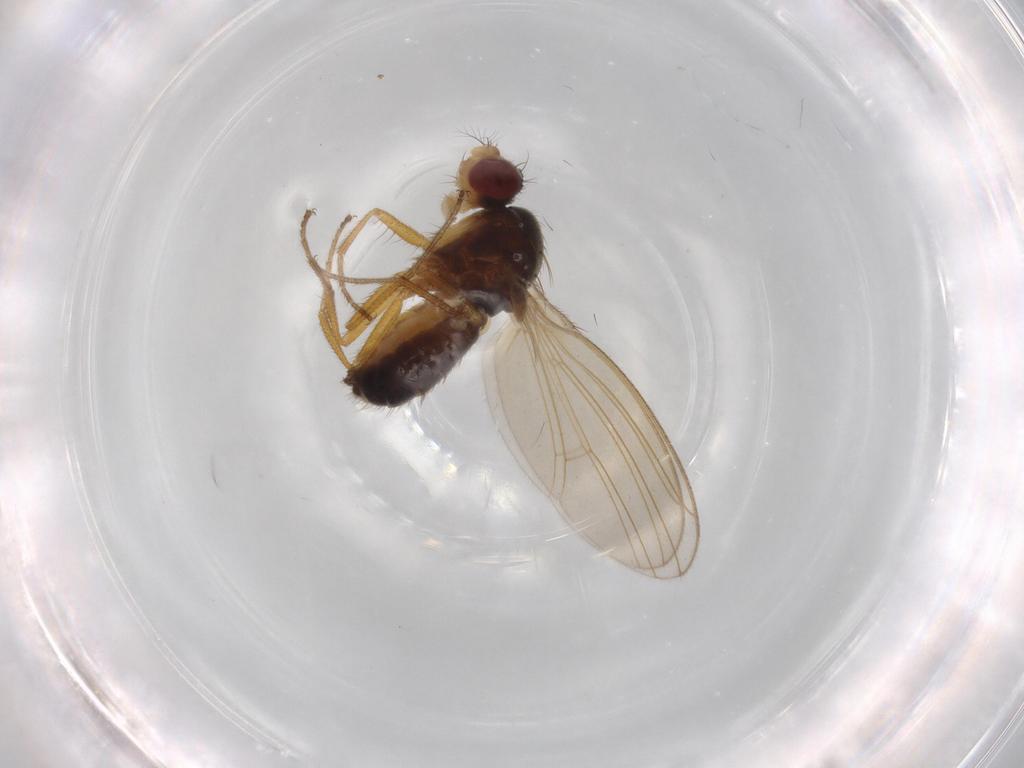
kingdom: Animalia
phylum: Arthropoda
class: Insecta
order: Diptera
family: Drosophilidae
